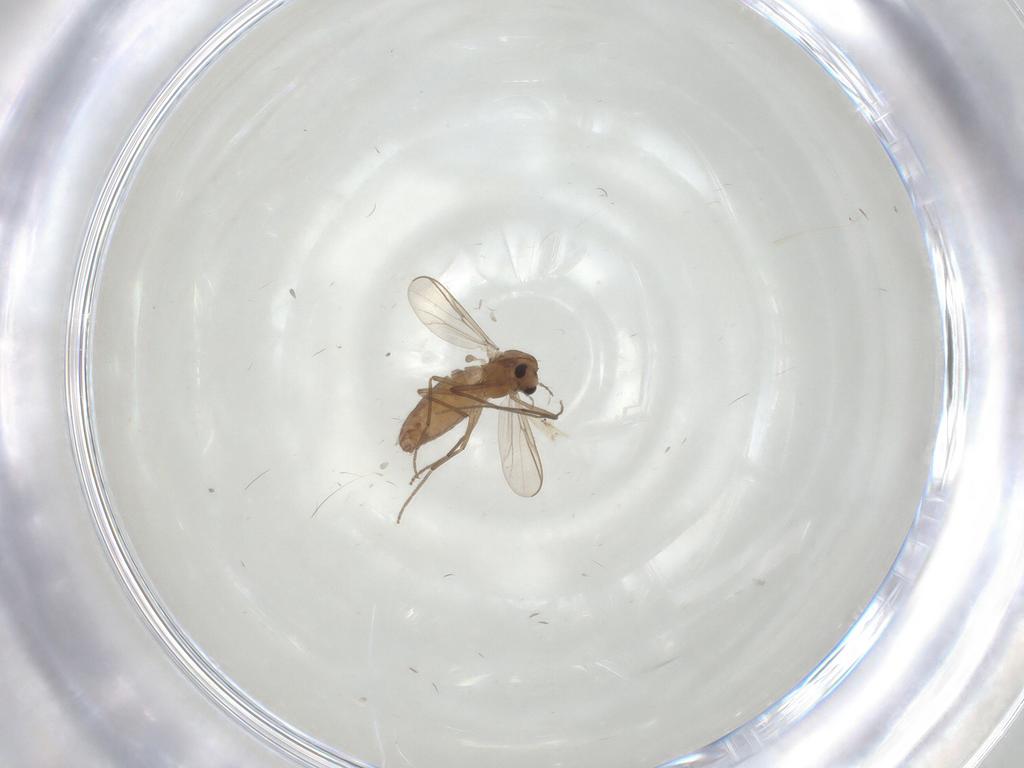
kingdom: Animalia
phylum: Arthropoda
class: Insecta
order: Diptera
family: Chironomidae
